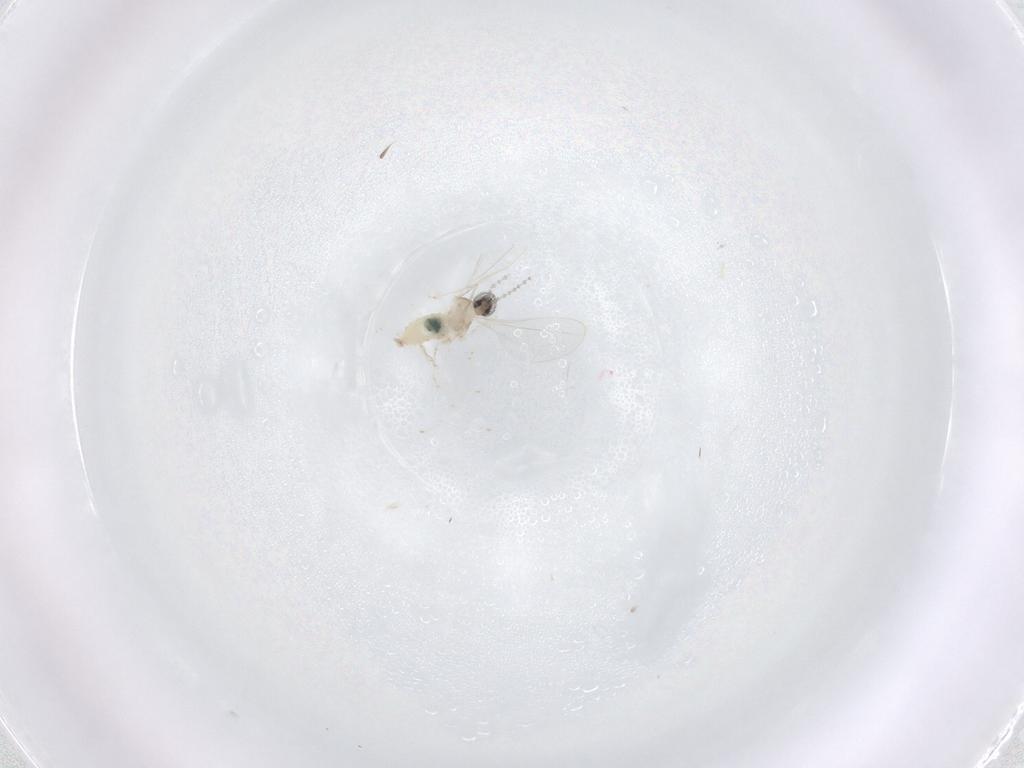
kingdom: Animalia
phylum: Arthropoda
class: Insecta
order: Diptera
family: Cecidomyiidae
